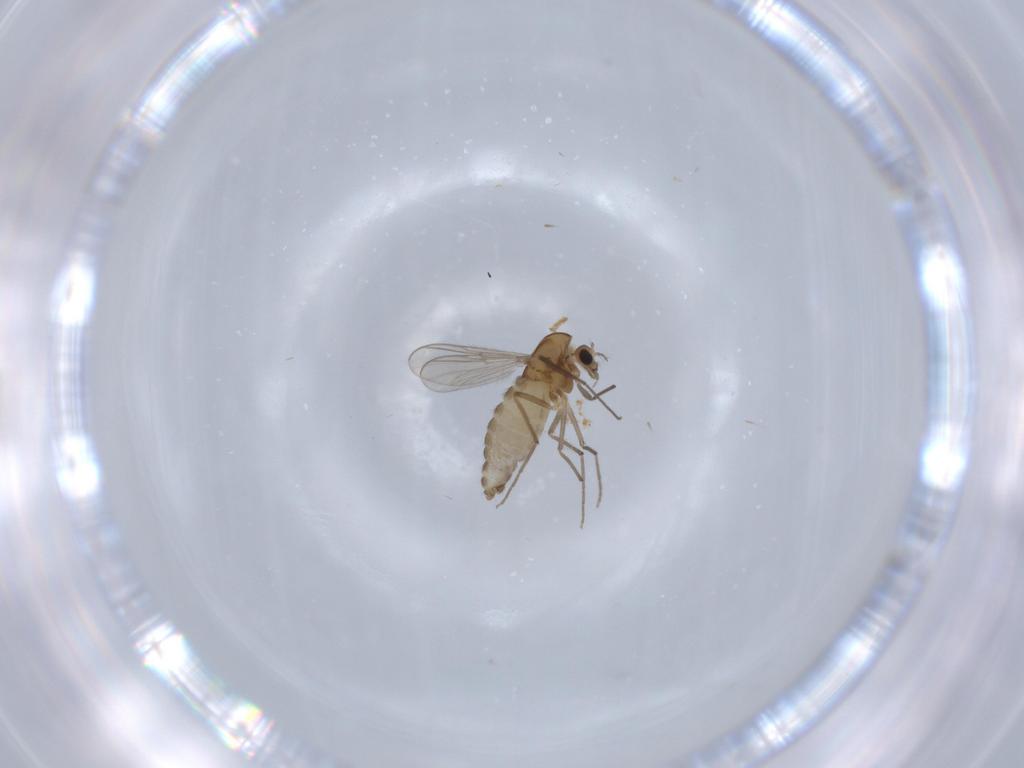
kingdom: Animalia
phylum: Arthropoda
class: Insecta
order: Diptera
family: Chironomidae
